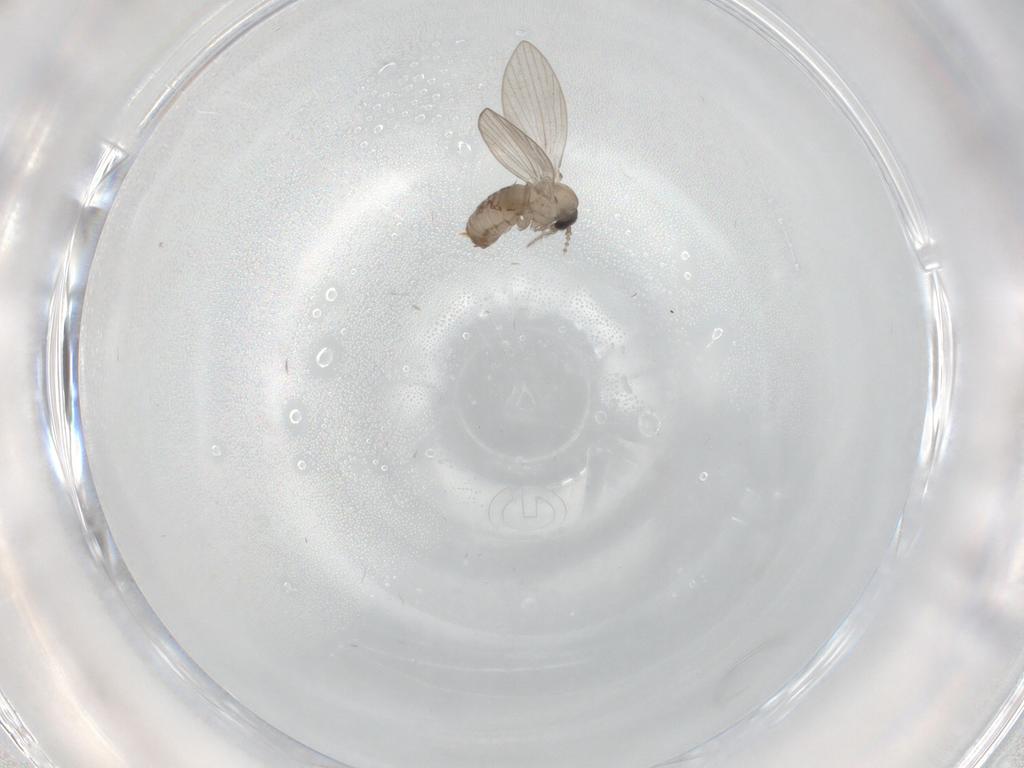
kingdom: Animalia
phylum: Arthropoda
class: Insecta
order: Diptera
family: Psychodidae
